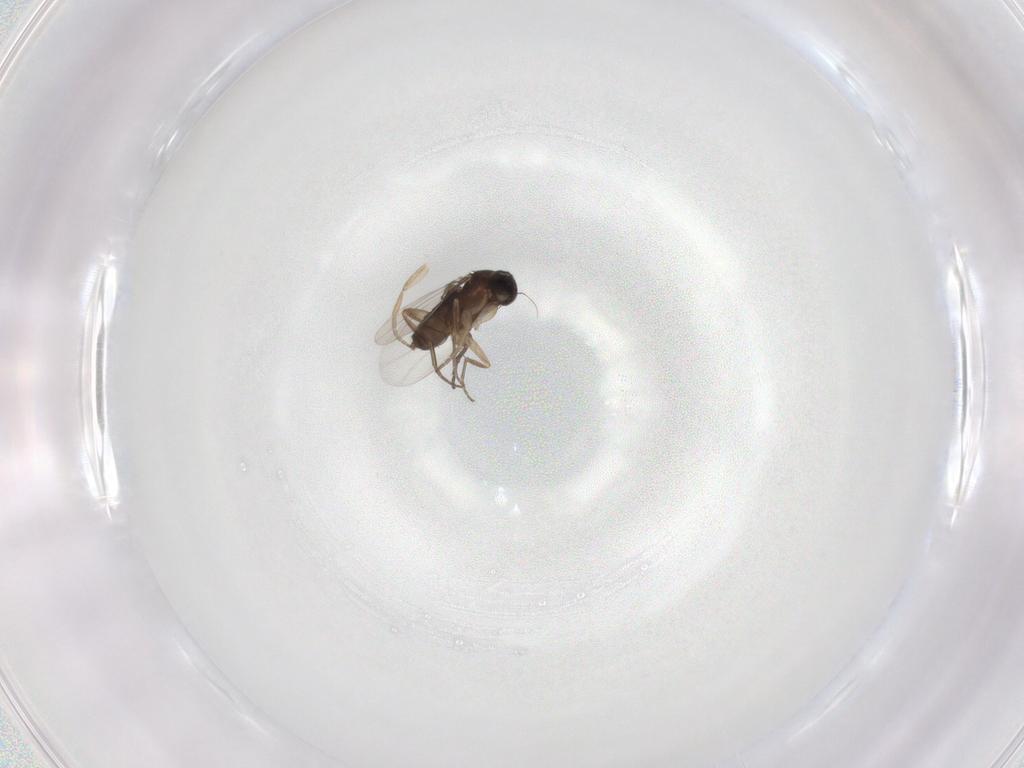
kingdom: Animalia
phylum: Arthropoda
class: Insecta
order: Diptera
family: Phoridae
